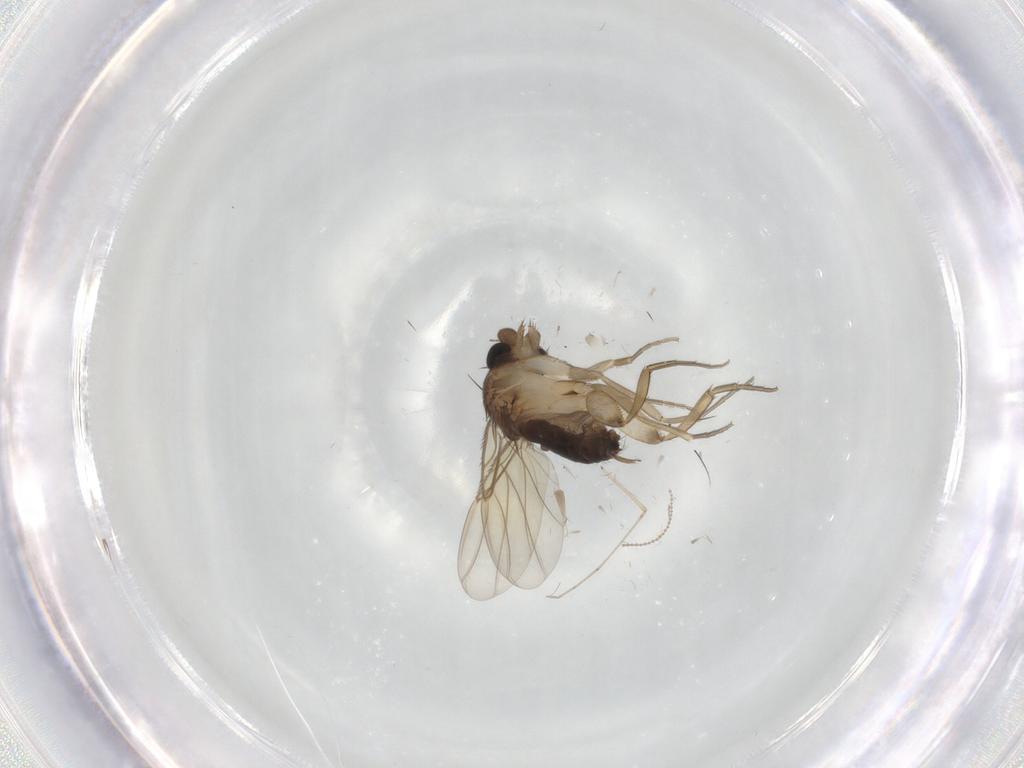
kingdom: Animalia
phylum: Arthropoda
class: Insecta
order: Diptera
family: Phoridae
